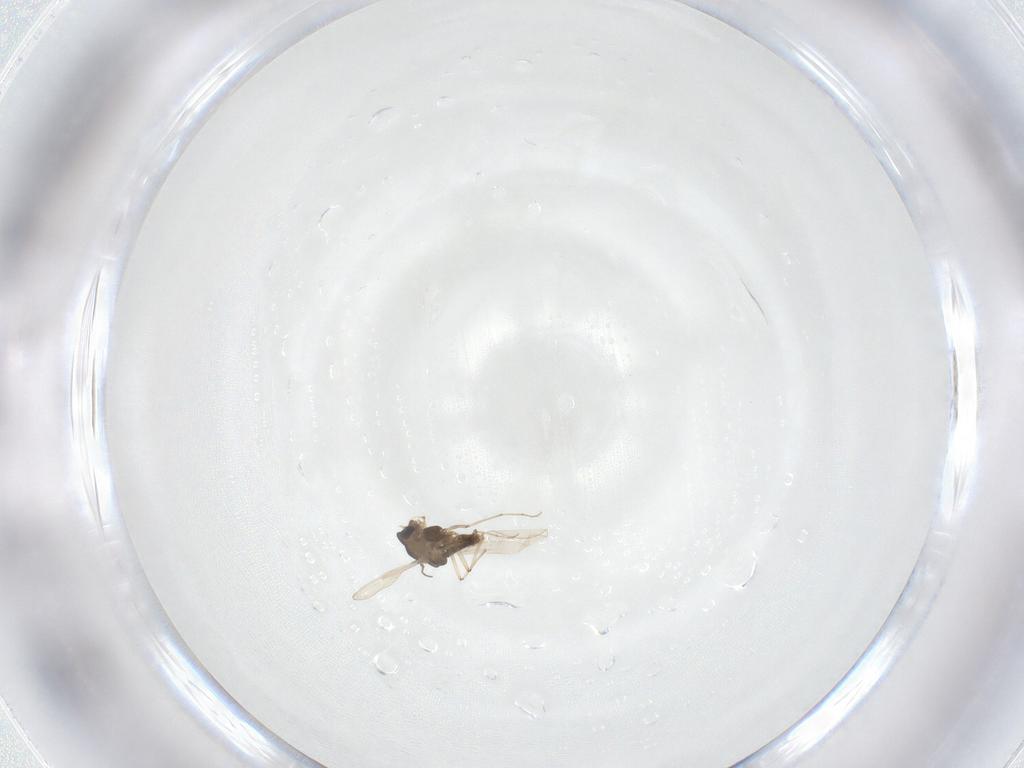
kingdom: Animalia
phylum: Arthropoda
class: Insecta
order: Diptera
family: Chironomidae
